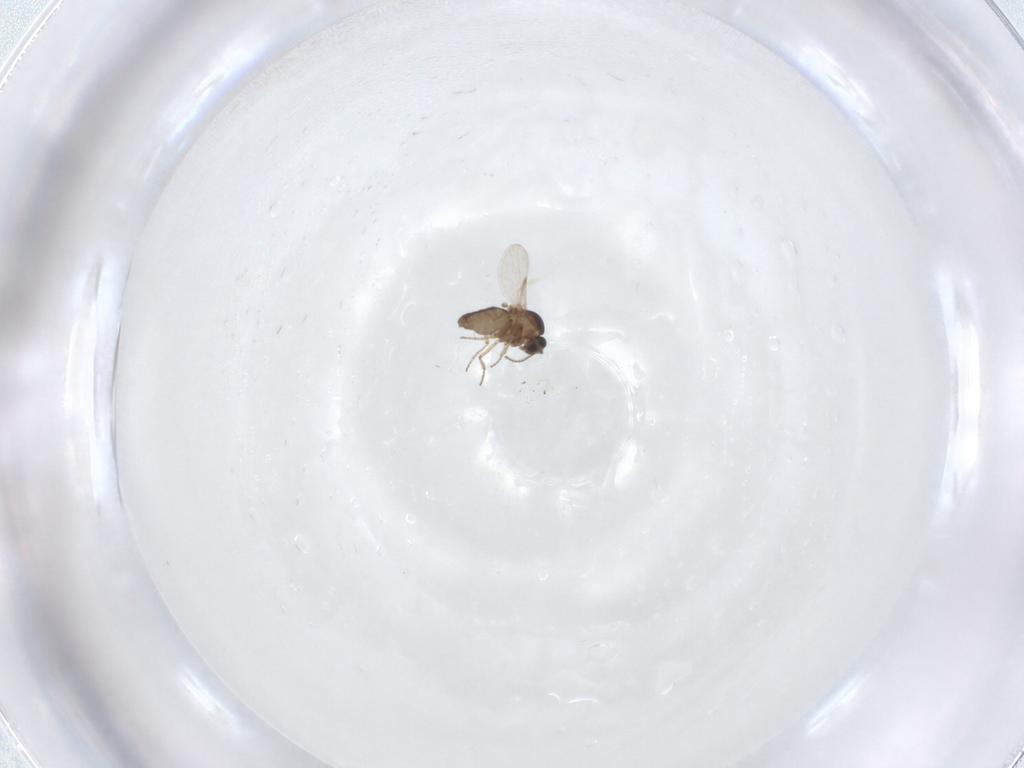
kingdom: Animalia
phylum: Arthropoda
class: Insecta
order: Diptera
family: Ceratopogonidae
